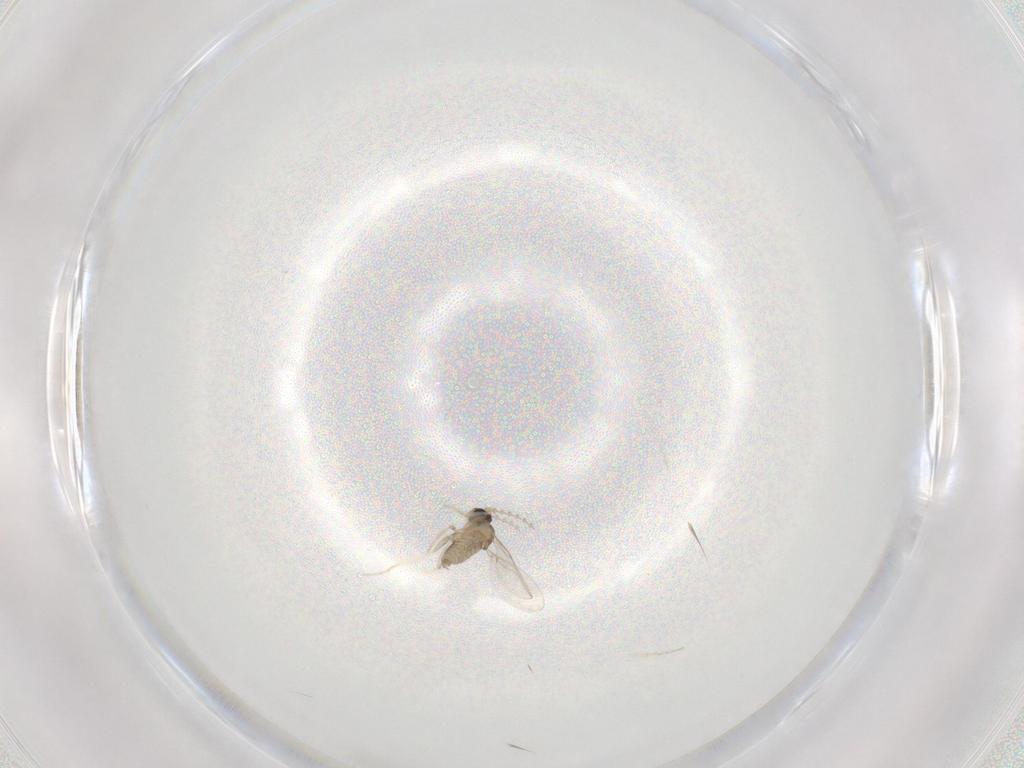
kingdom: Animalia
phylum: Arthropoda
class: Insecta
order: Diptera
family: Cecidomyiidae
